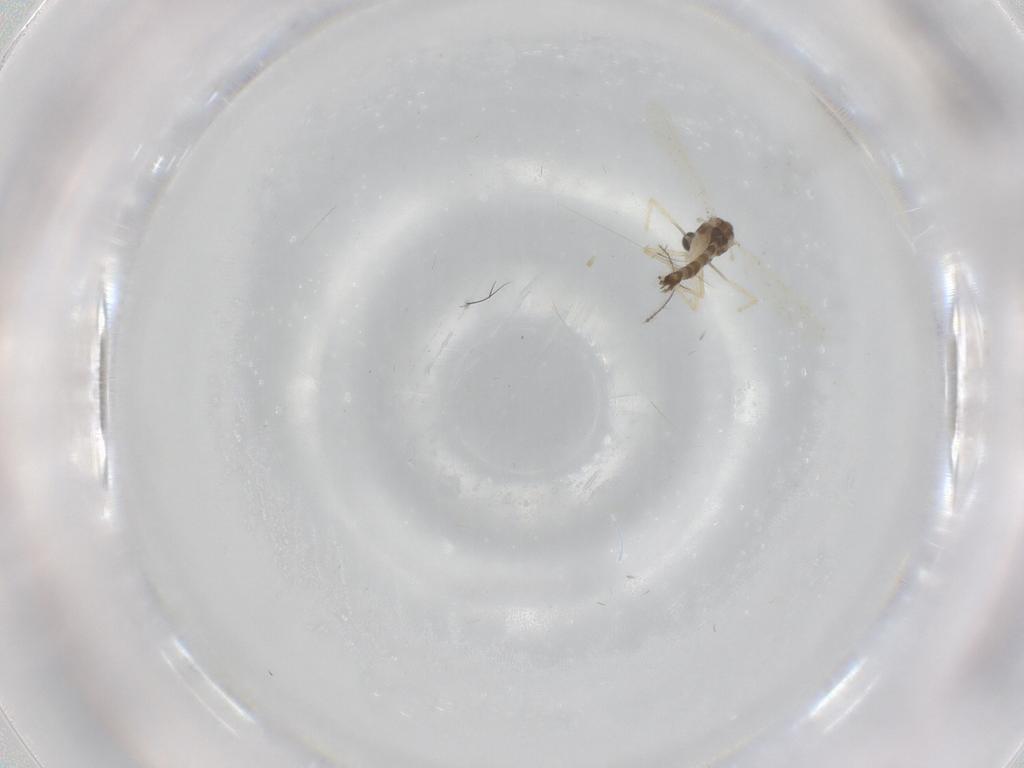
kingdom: Animalia
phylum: Arthropoda
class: Insecta
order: Diptera
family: Chironomidae
